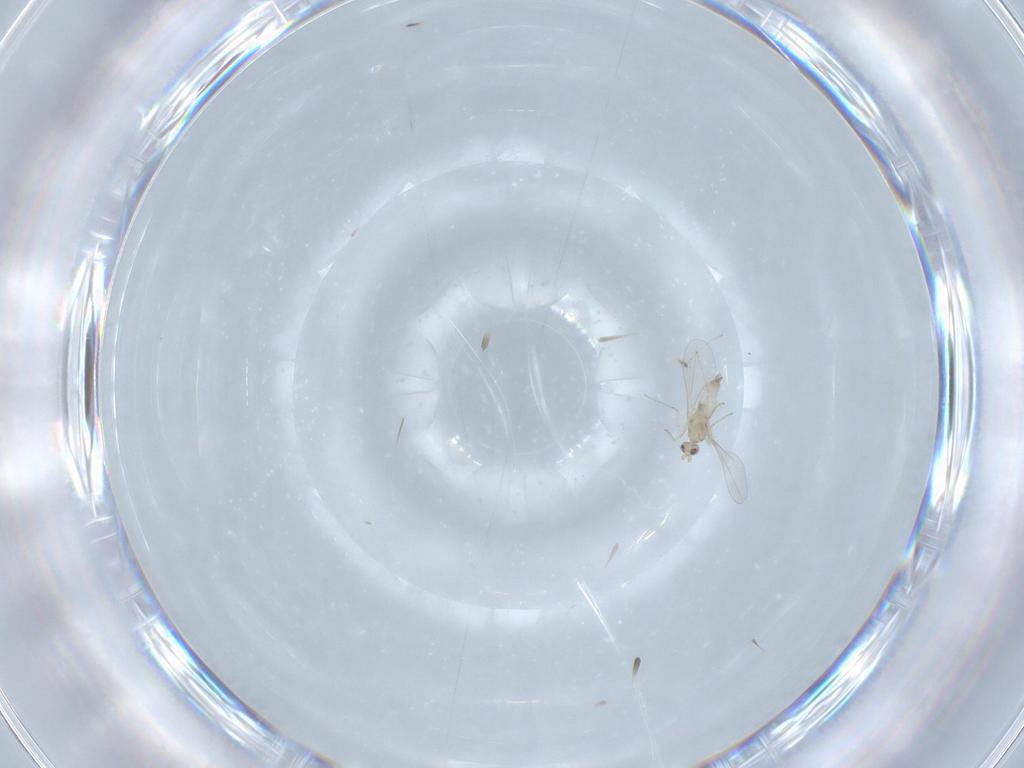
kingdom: Animalia
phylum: Arthropoda
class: Insecta
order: Diptera
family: Cecidomyiidae
